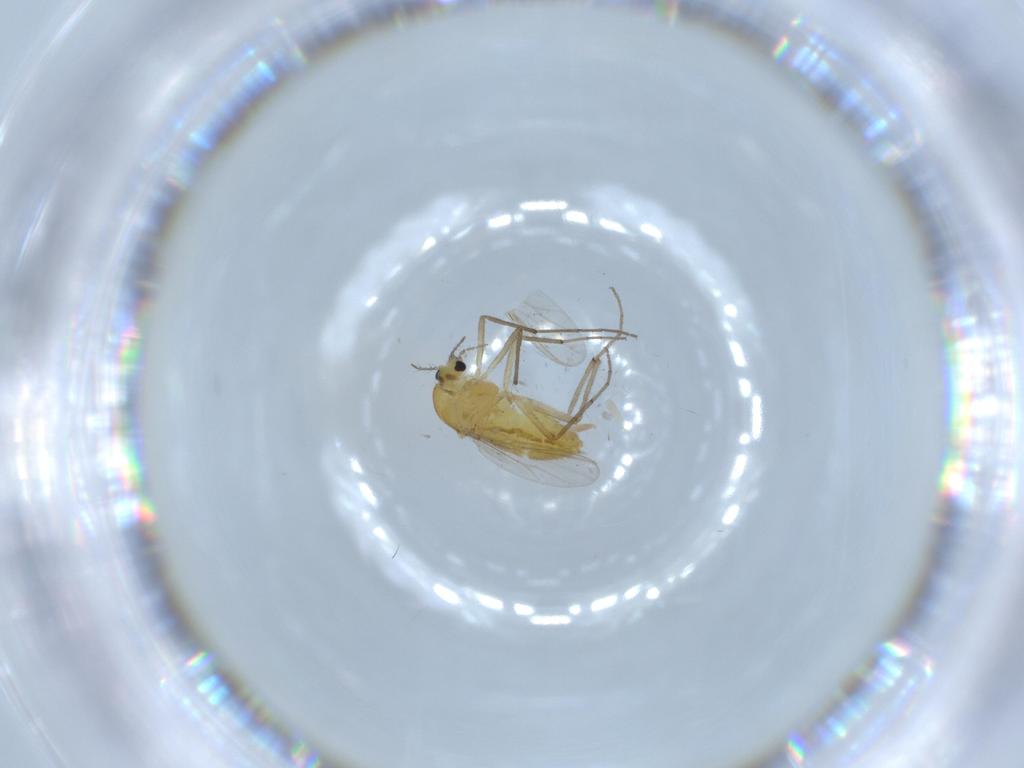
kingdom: Animalia
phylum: Arthropoda
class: Insecta
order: Diptera
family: Chironomidae
